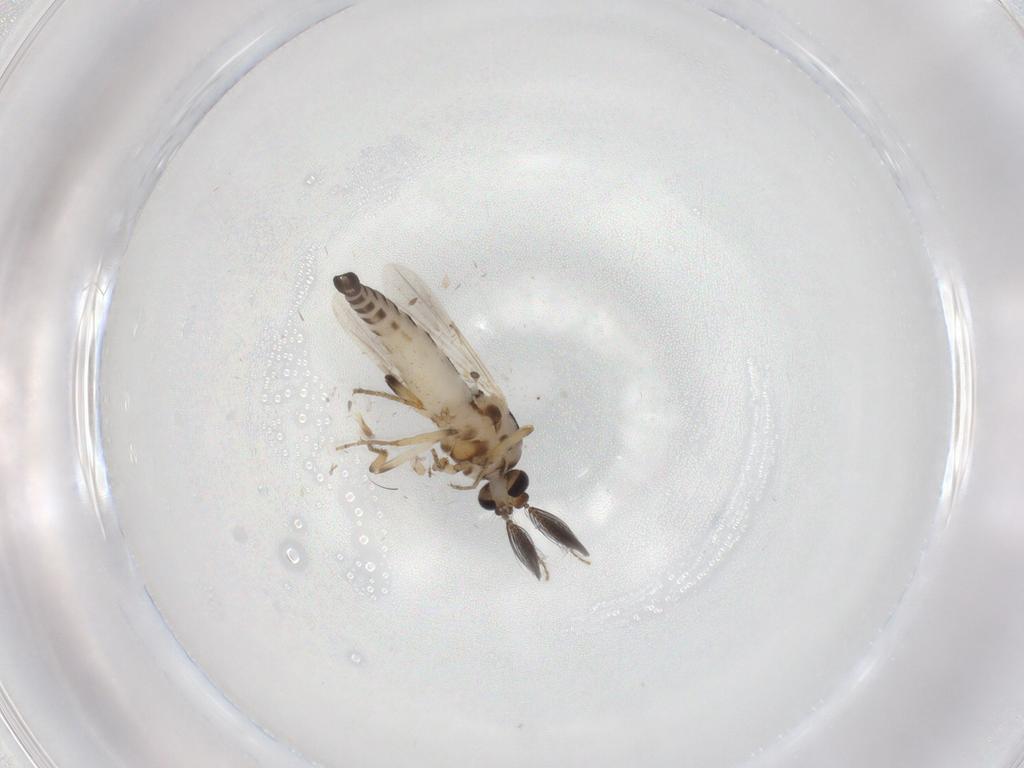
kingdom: Animalia
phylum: Arthropoda
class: Insecta
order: Diptera
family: Ceratopogonidae
